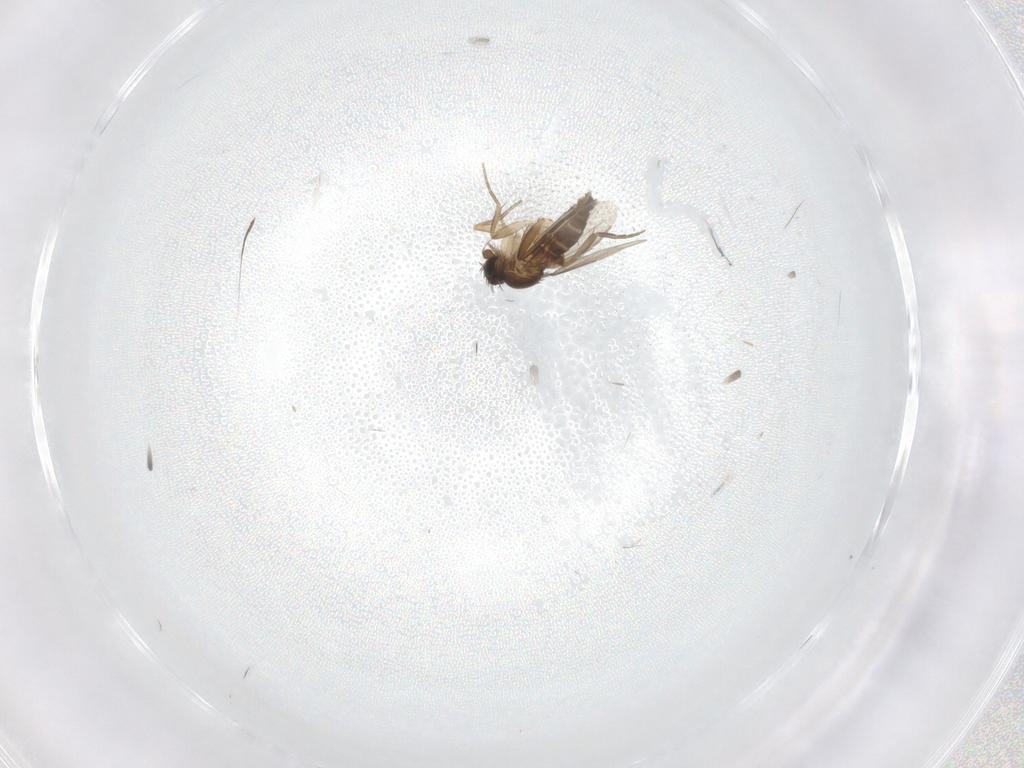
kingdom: Animalia
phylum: Arthropoda
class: Insecta
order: Diptera
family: Phoridae
